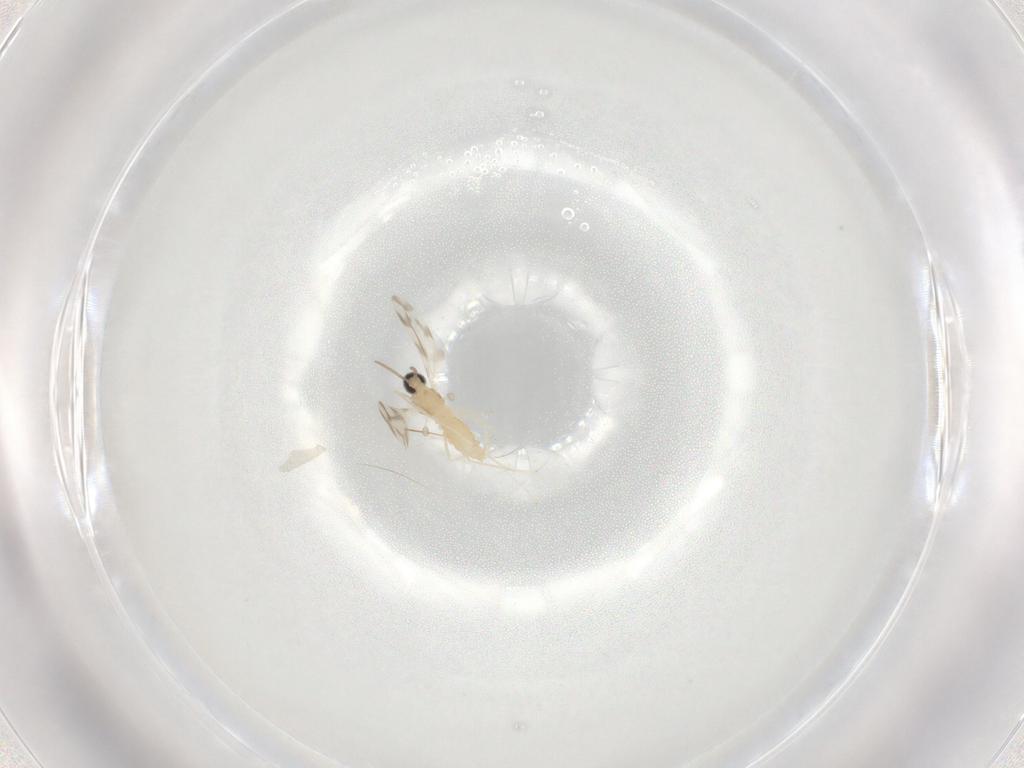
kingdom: Animalia
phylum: Arthropoda
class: Insecta
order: Diptera
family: Cecidomyiidae
